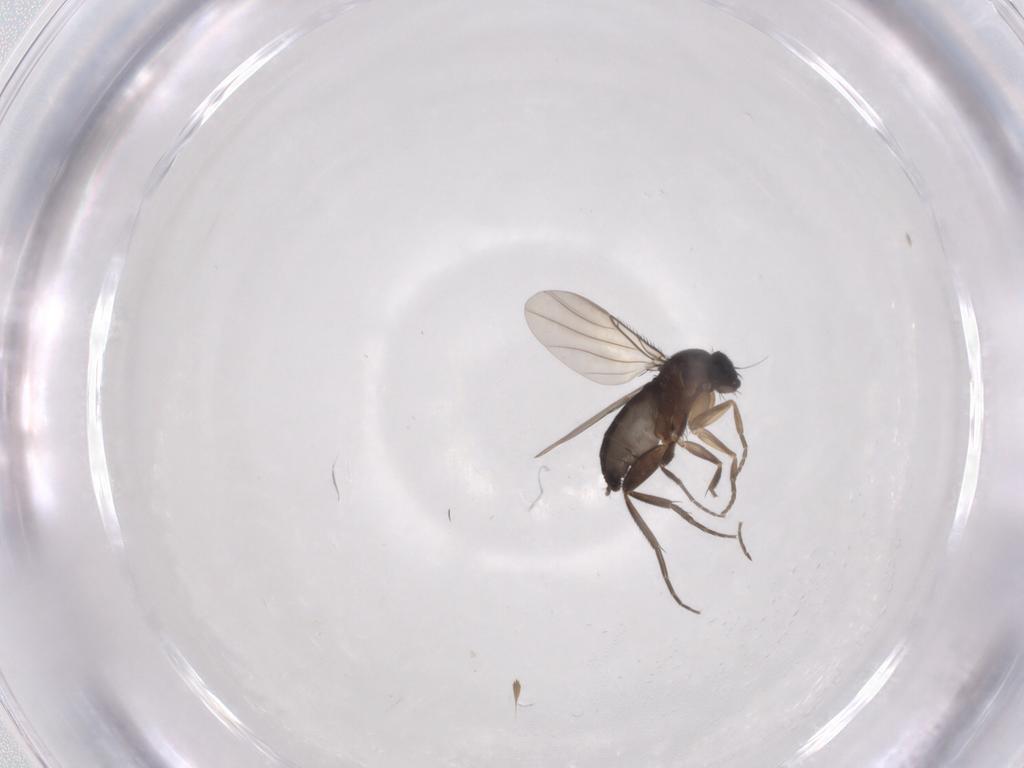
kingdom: Animalia
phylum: Arthropoda
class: Insecta
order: Diptera
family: Phoridae
